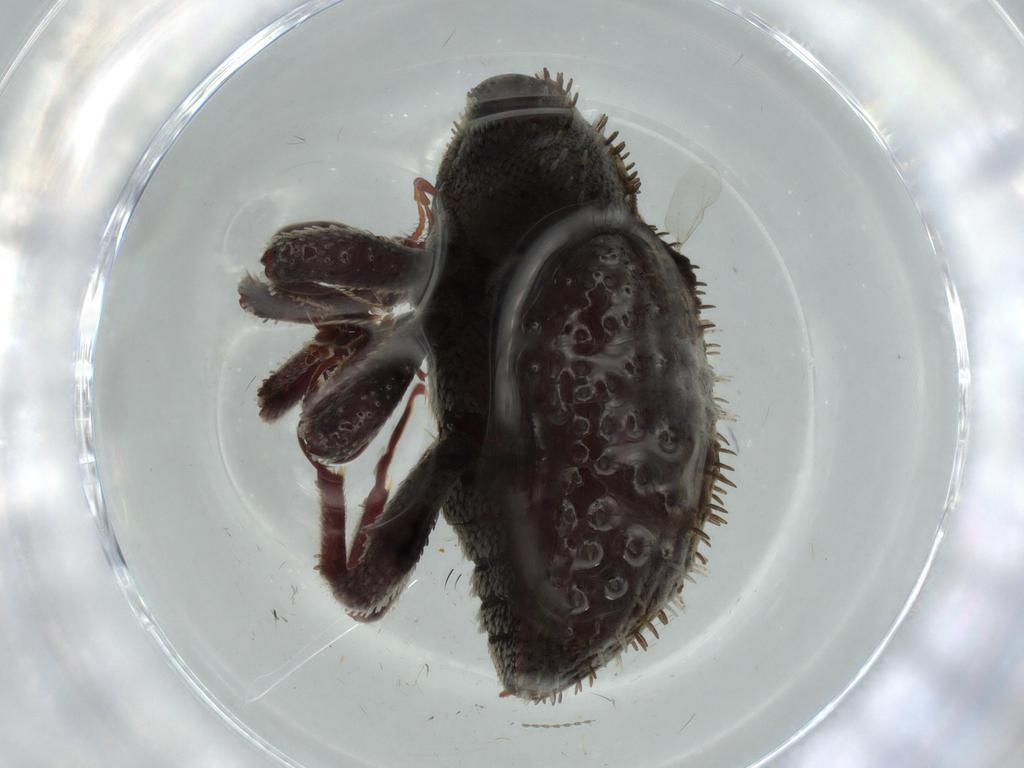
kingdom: Animalia
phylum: Arthropoda
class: Insecta
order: Coleoptera
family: Curculionidae
